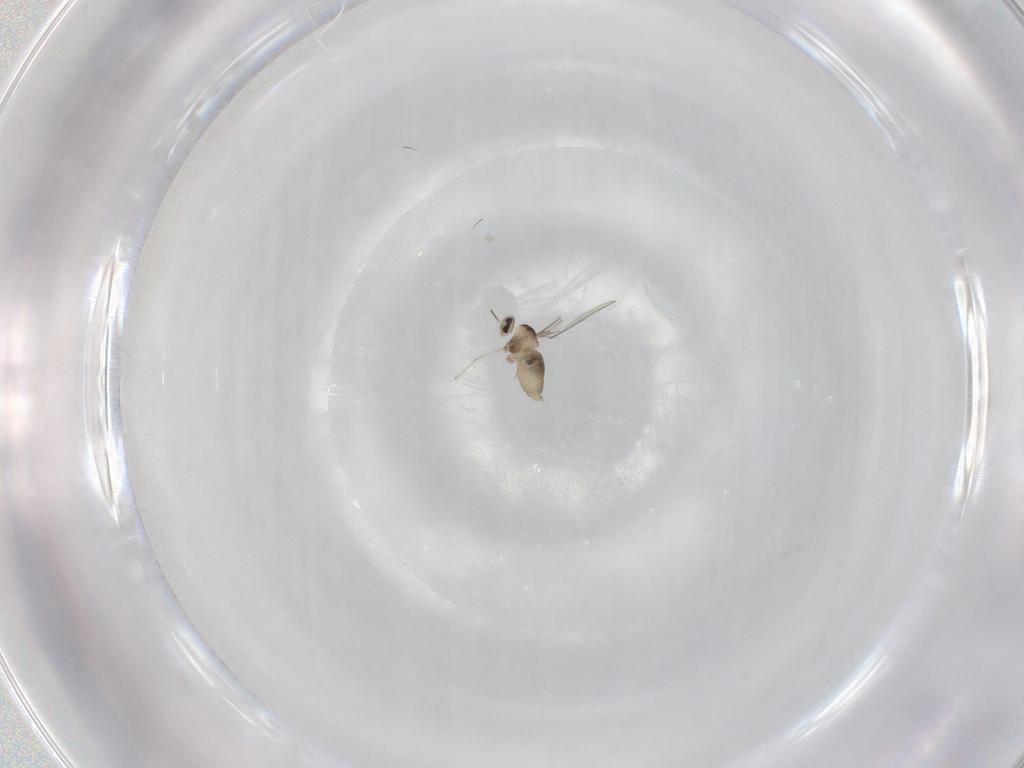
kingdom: Animalia
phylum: Arthropoda
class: Insecta
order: Diptera
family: Cecidomyiidae
